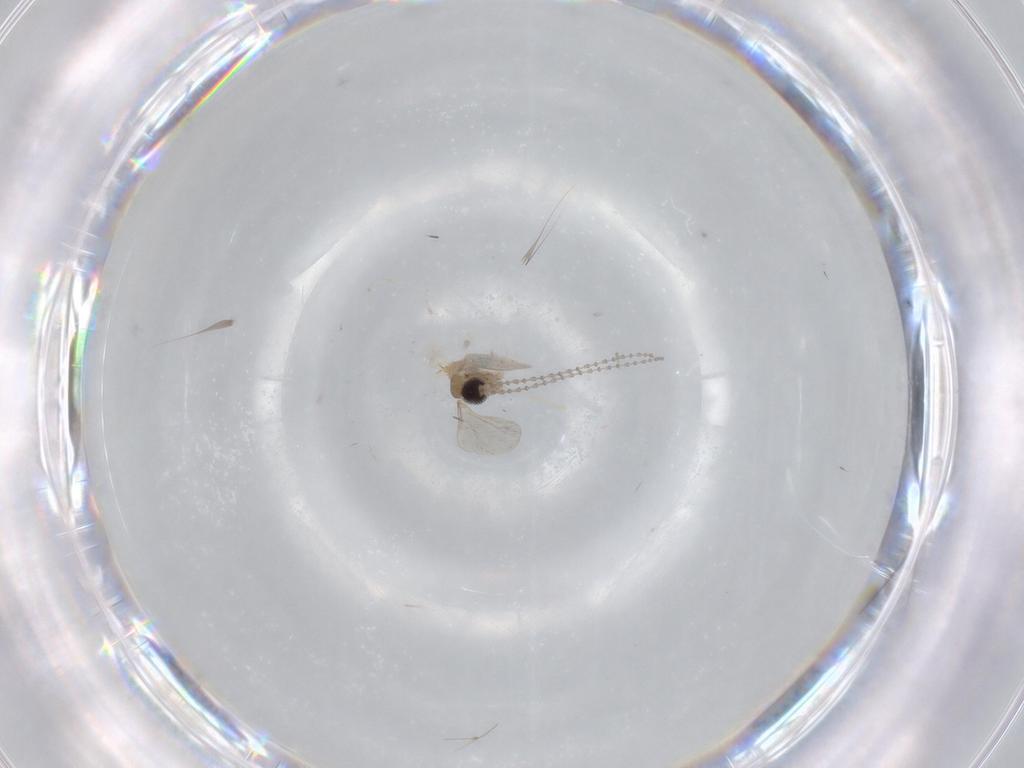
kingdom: Animalia
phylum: Arthropoda
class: Insecta
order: Diptera
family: Cecidomyiidae
